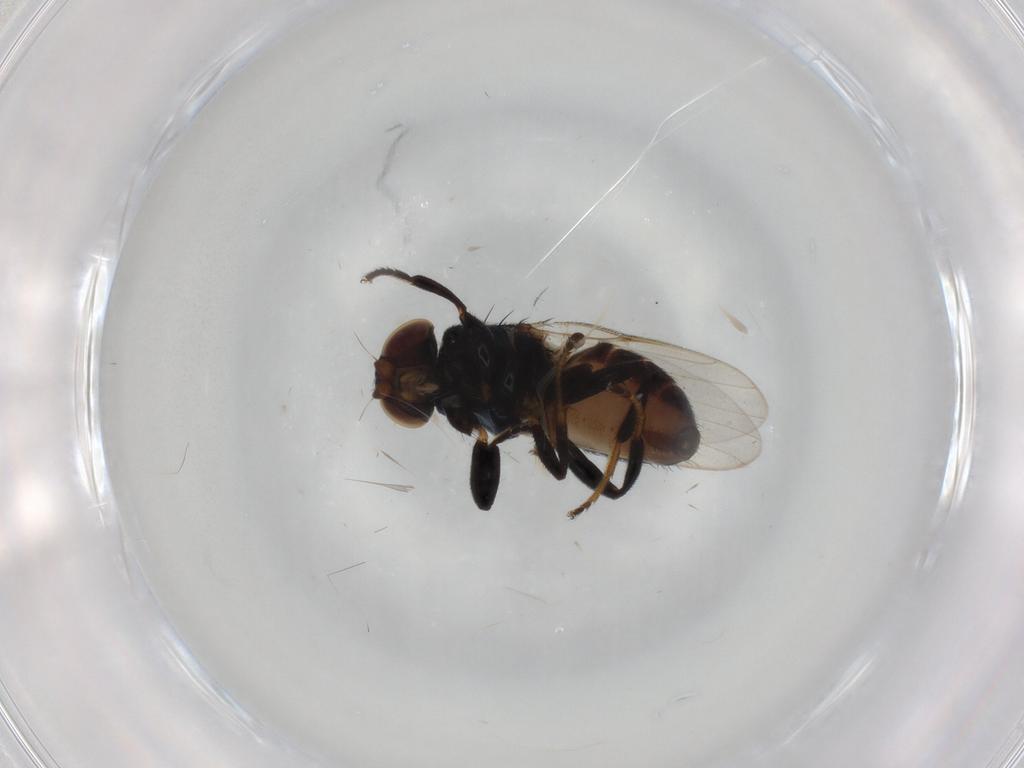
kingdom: Animalia
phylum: Arthropoda
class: Insecta
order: Diptera
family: Chloropidae
